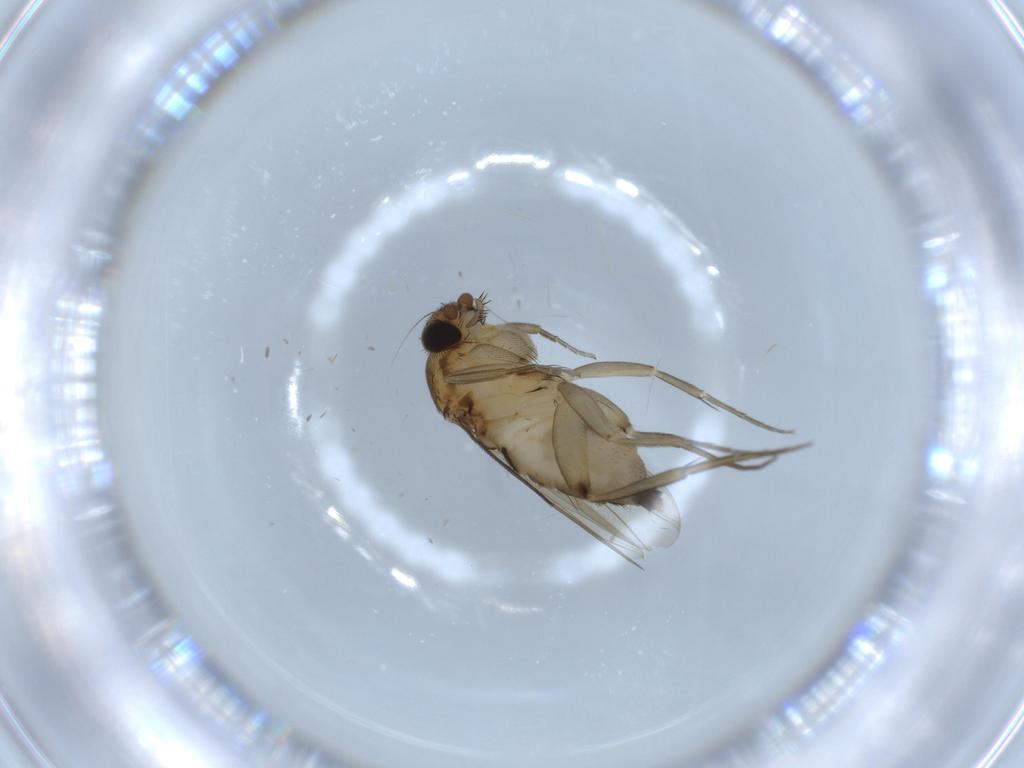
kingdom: Animalia
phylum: Arthropoda
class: Insecta
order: Diptera
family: Phoridae
